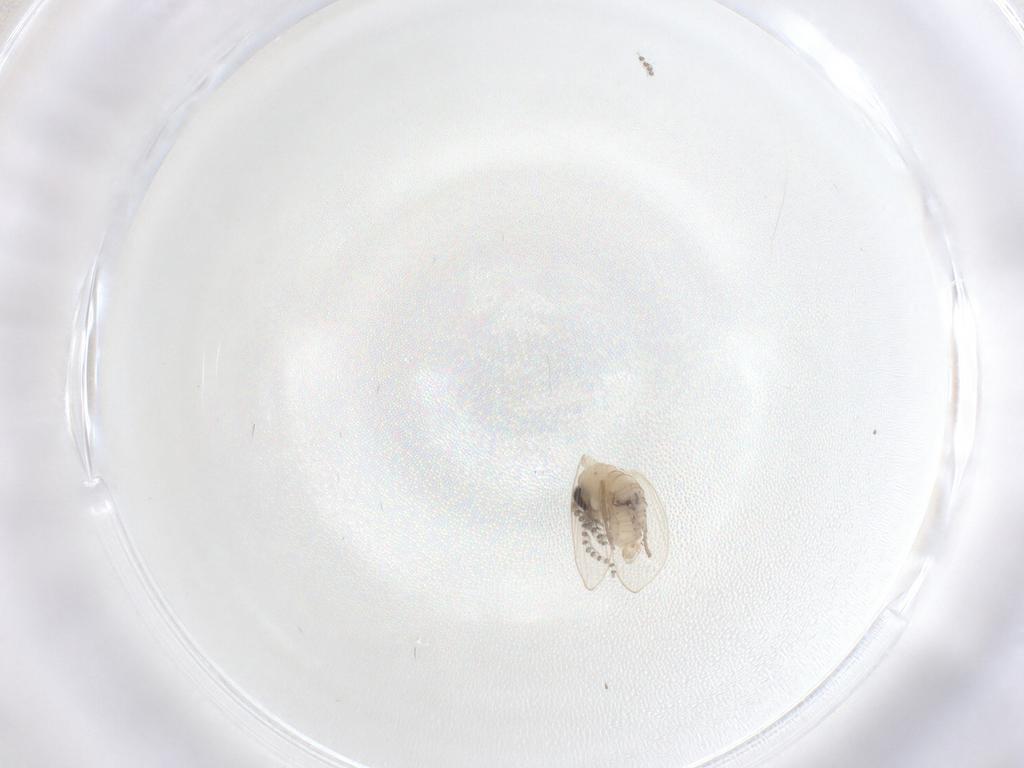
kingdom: Animalia
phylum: Arthropoda
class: Insecta
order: Diptera
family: Psychodidae
